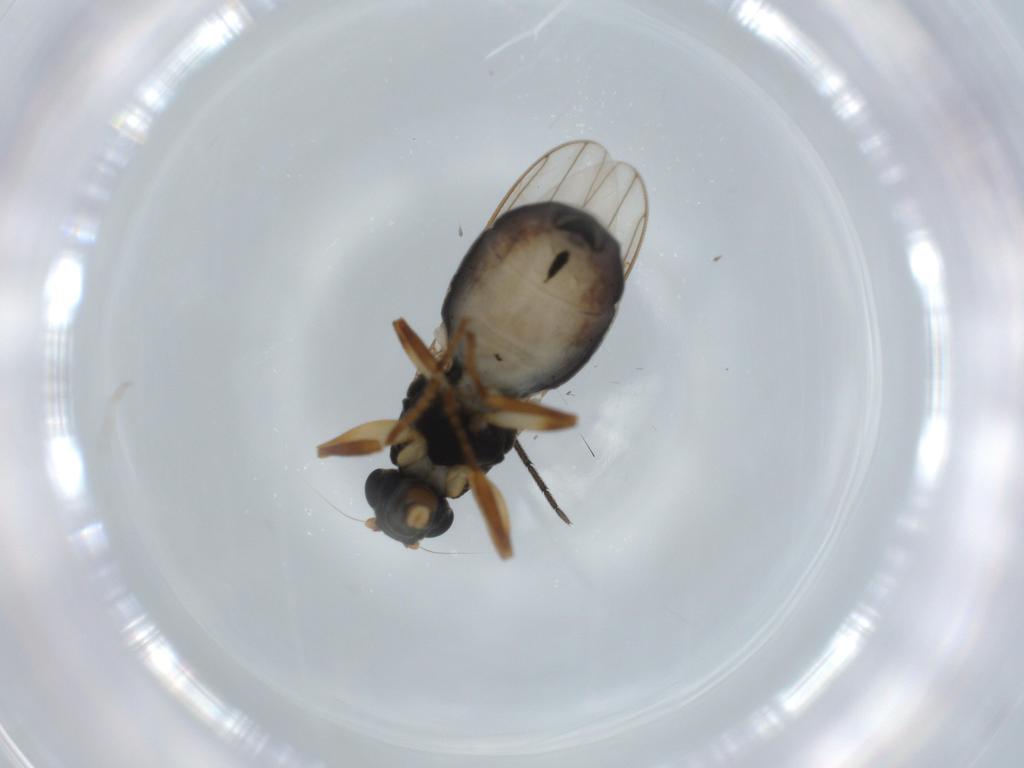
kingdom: Animalia
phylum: Arthropoda
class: Insecta
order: Diptera
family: Sphaeroceridae
